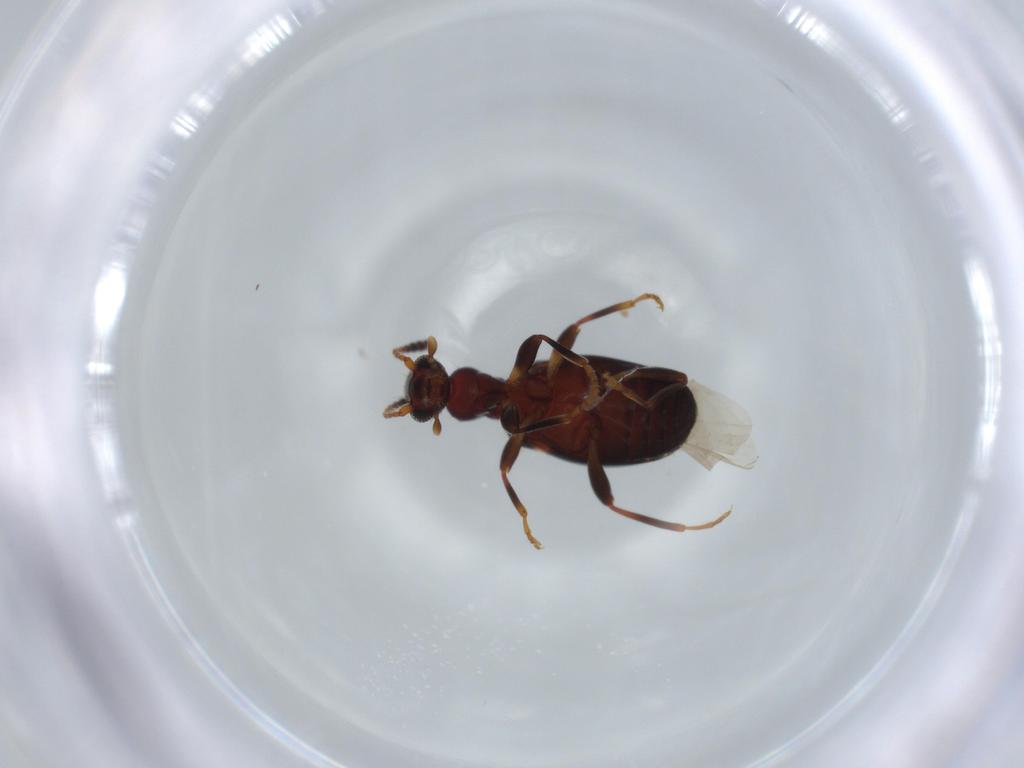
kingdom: Animalia
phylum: Arthropoda
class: Insecta
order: Coleoptera
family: Anthicidae
